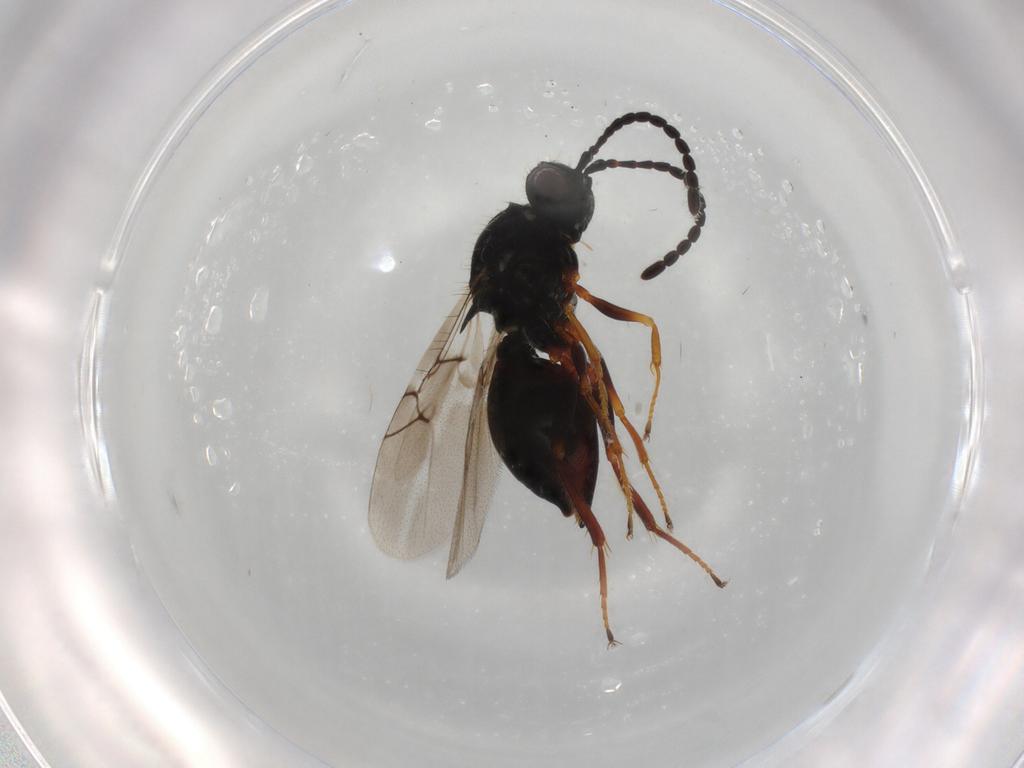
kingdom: Animalia
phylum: Arthropoda
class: Insecta
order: Hymenoptera
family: Figitidae
